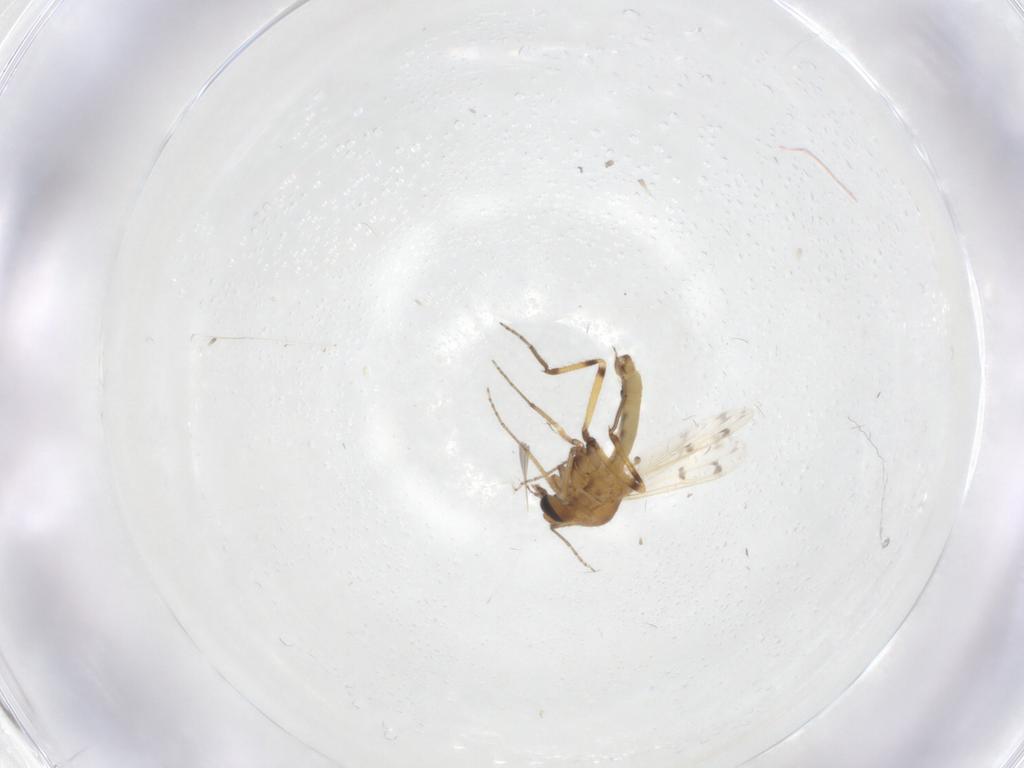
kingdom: Animalia
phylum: Arthropoda
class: Insecta
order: Diptera
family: Ceratopogonidae
